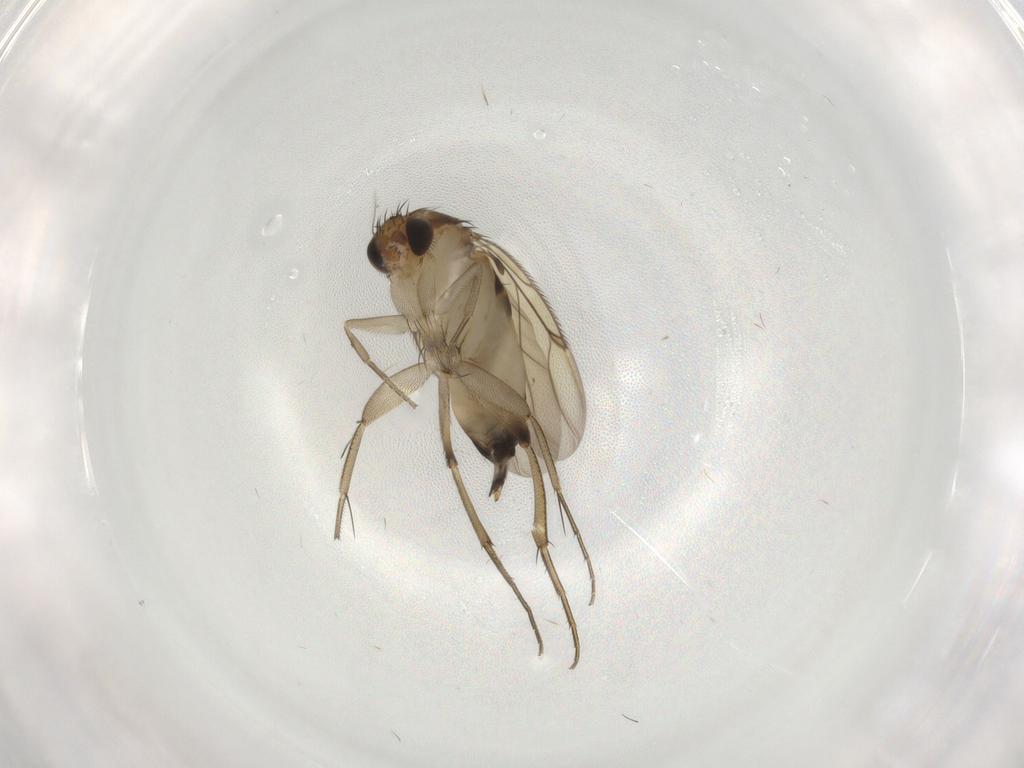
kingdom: Animalia
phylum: Arthropoda
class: Insecta
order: Diptera
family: Phoridae
